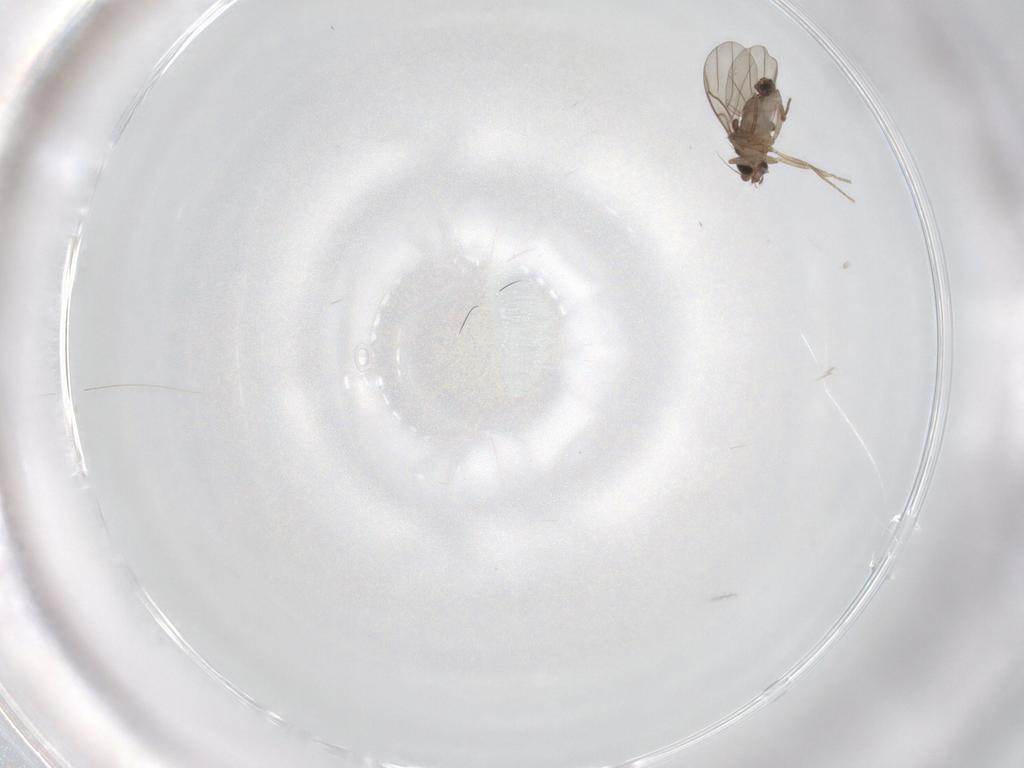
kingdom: Animalia
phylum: Arthropoda
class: Insecta
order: Diptera
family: Phoridae
